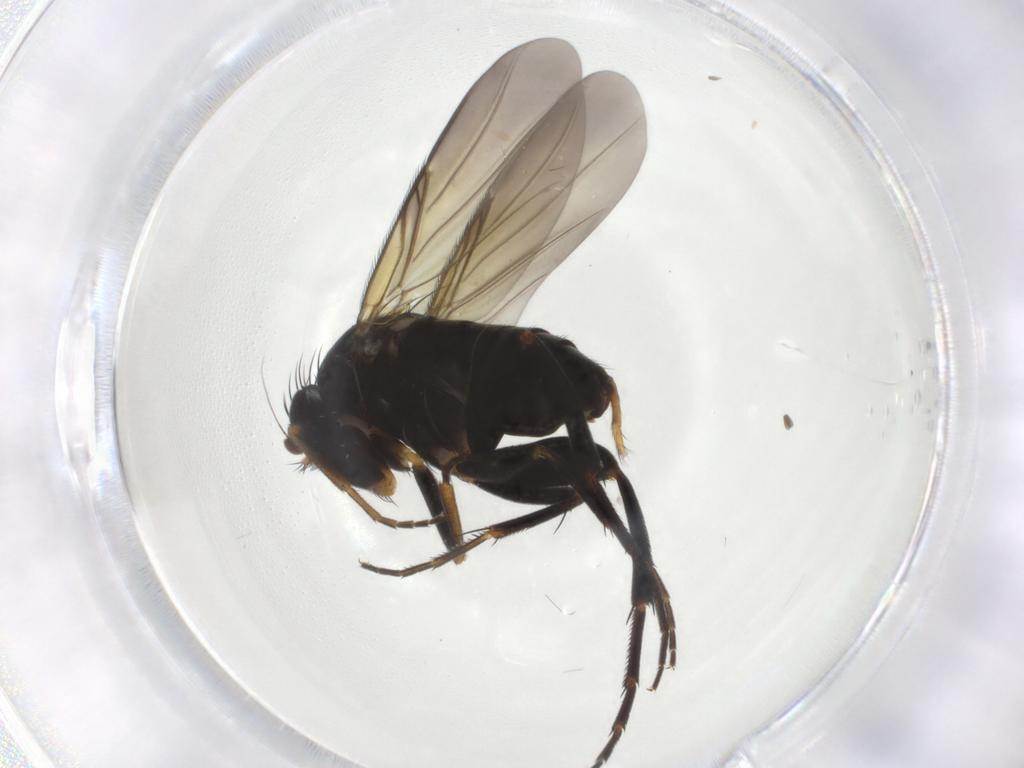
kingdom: Animalia
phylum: Arthropoda
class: Insecta
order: Diptera
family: Phoridae
